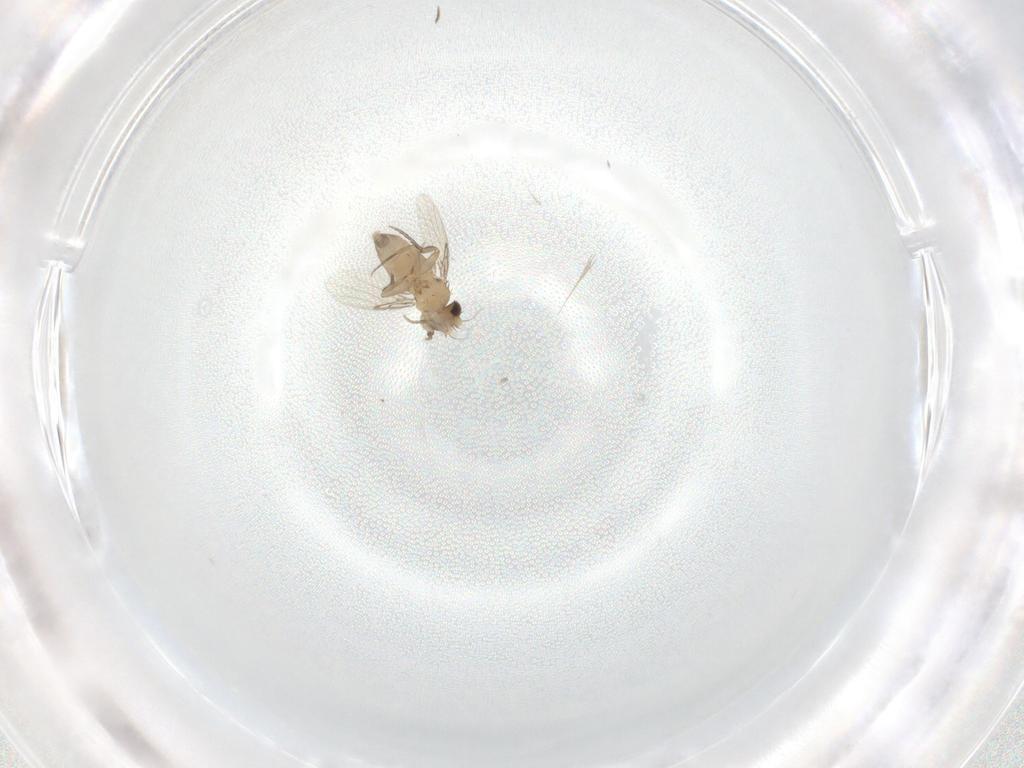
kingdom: Animalia
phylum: Arthropoda
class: Insecta
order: Diptera
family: Phoridae
